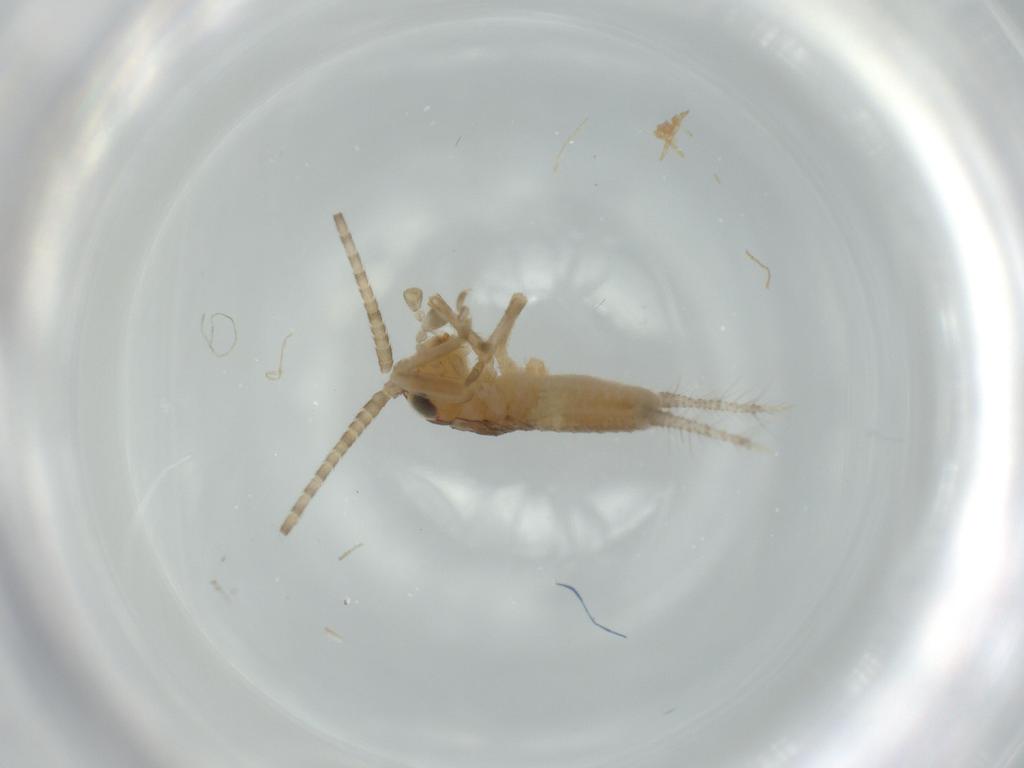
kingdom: Animalia
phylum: Arthropoda
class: Insecta
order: Orthoptera
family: Gryllidae
